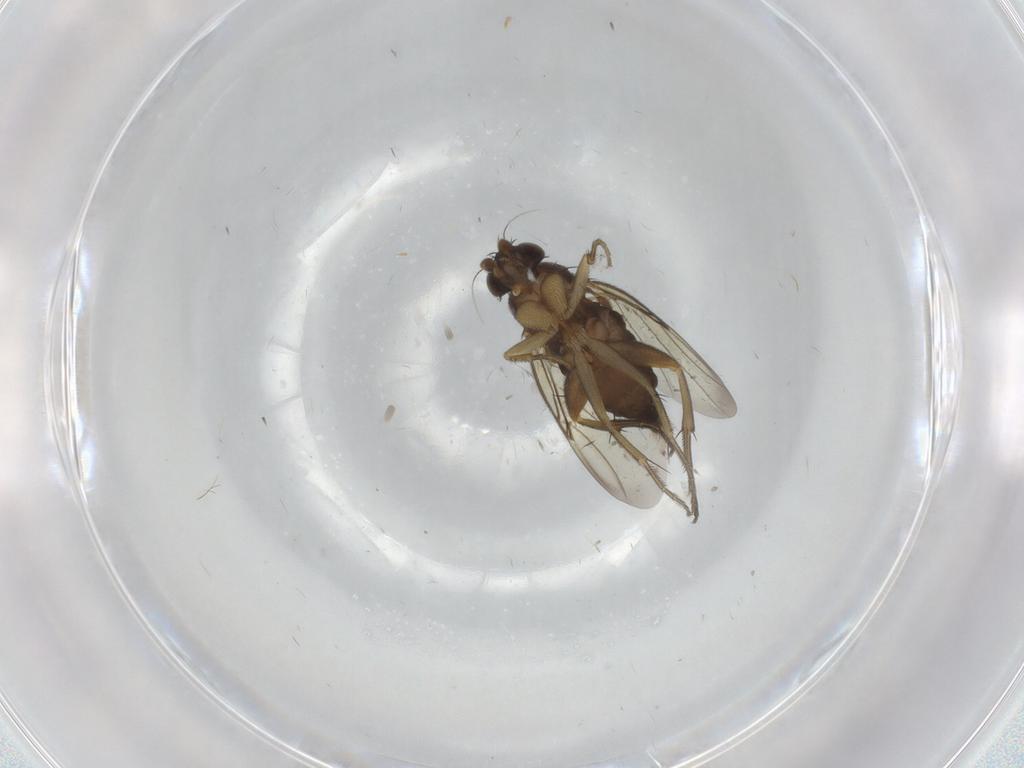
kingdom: Animalia
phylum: Arthropoda
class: Insecta
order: Diptera
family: Phoridae
